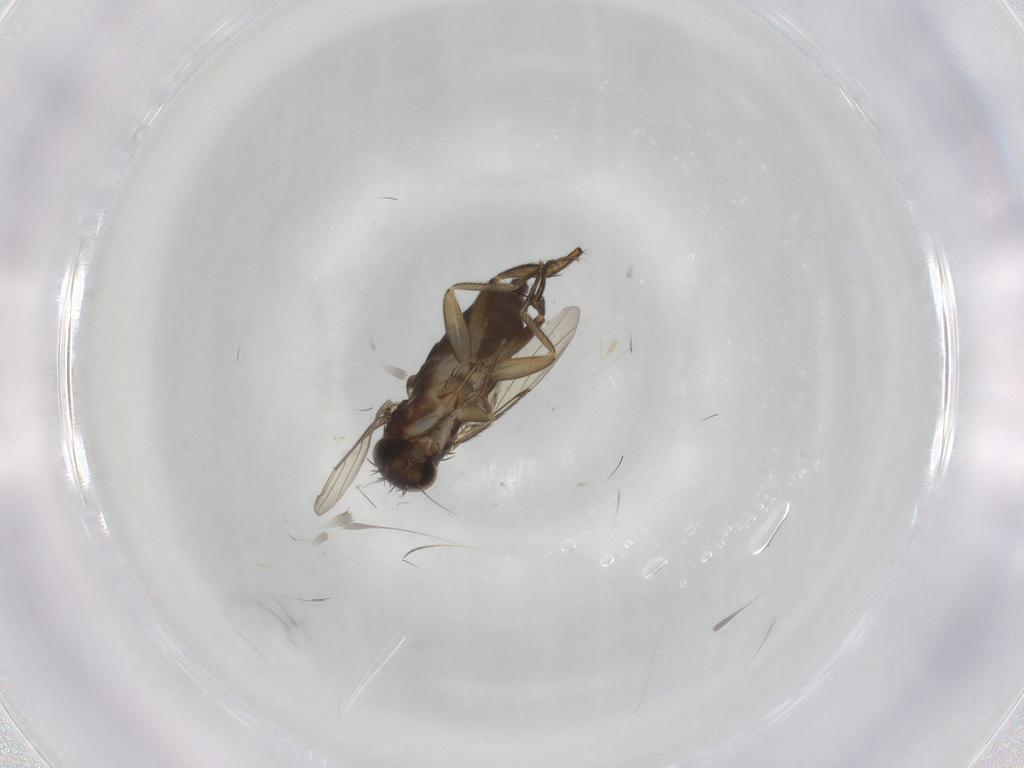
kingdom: Animalia
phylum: Arthropoda
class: Insecta
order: Diptera
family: Phoridae
